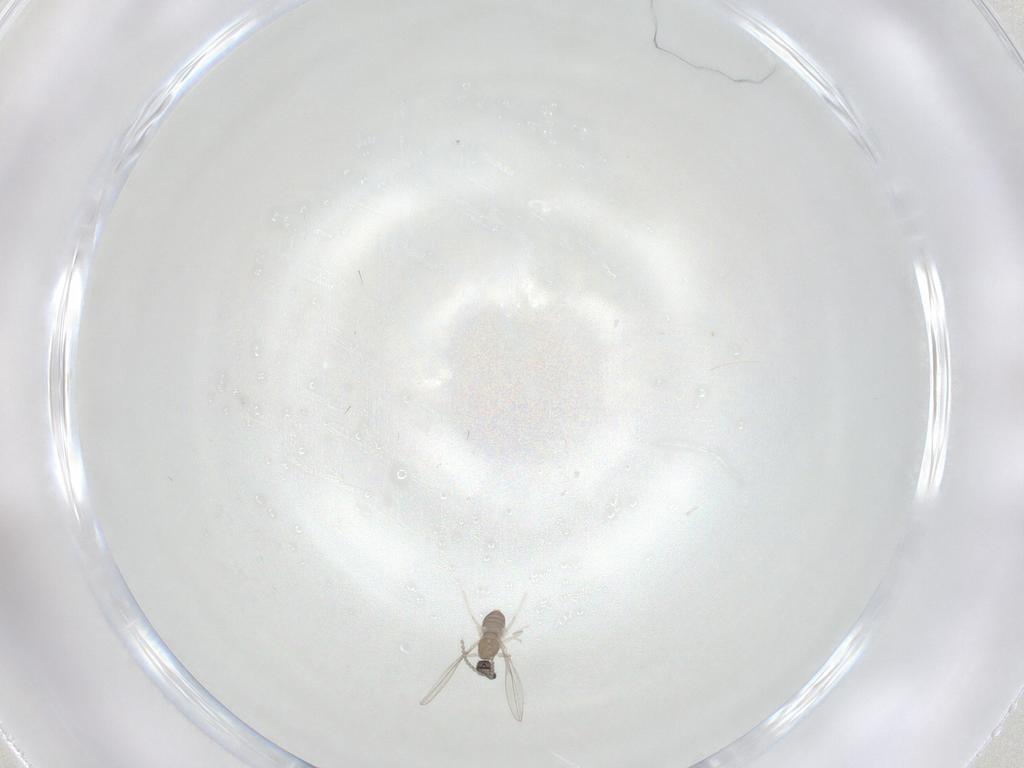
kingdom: Animalia
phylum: Arthropoda
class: Insecta
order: Diptera
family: Cecidomyiidae
